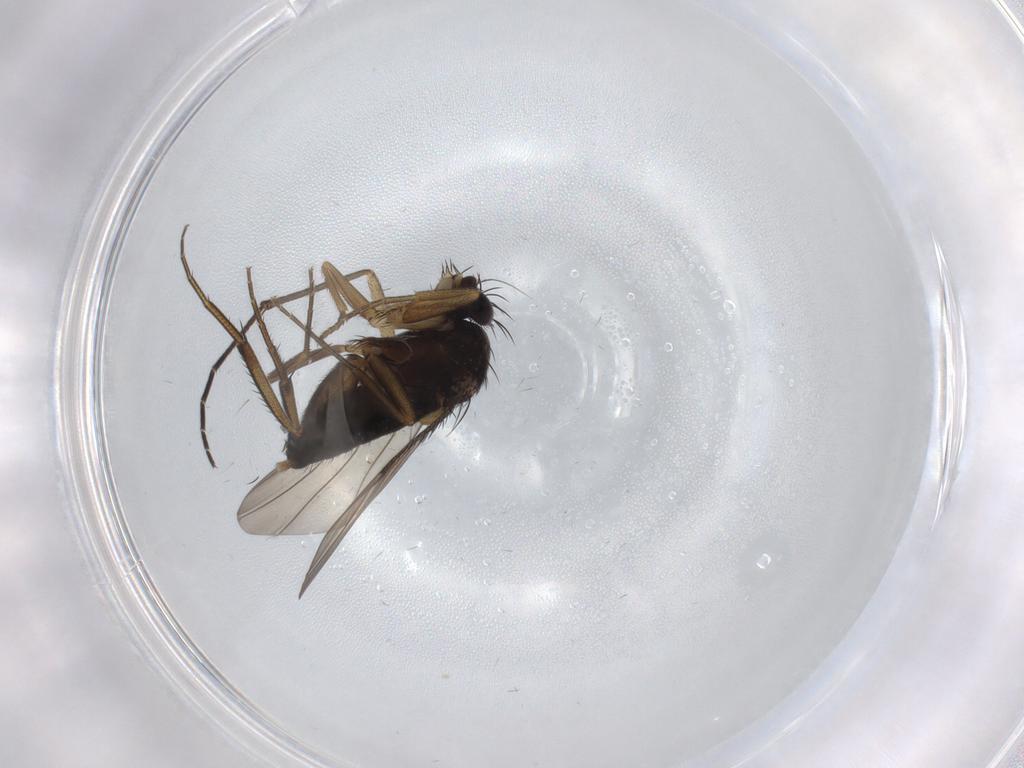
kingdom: Animalia
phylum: Arthropoda
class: Insecta
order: Diptera
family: Phoridae
